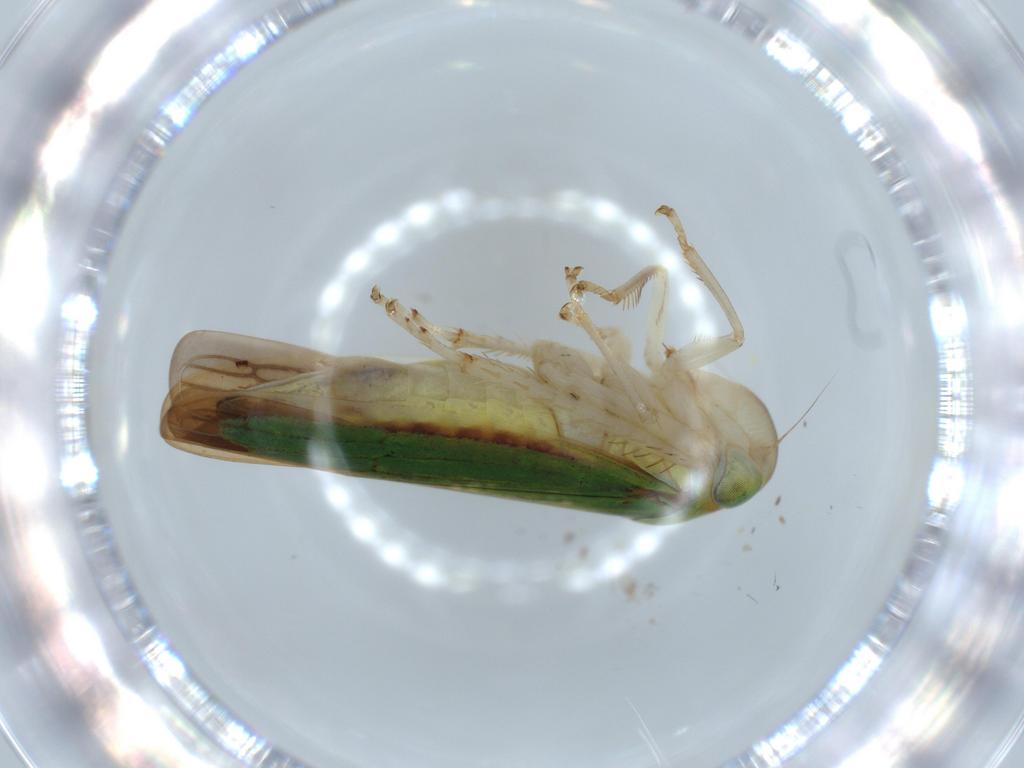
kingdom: Animalia
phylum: Arthropoda
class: Insecta
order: Hemiptera
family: Cicadellidae
